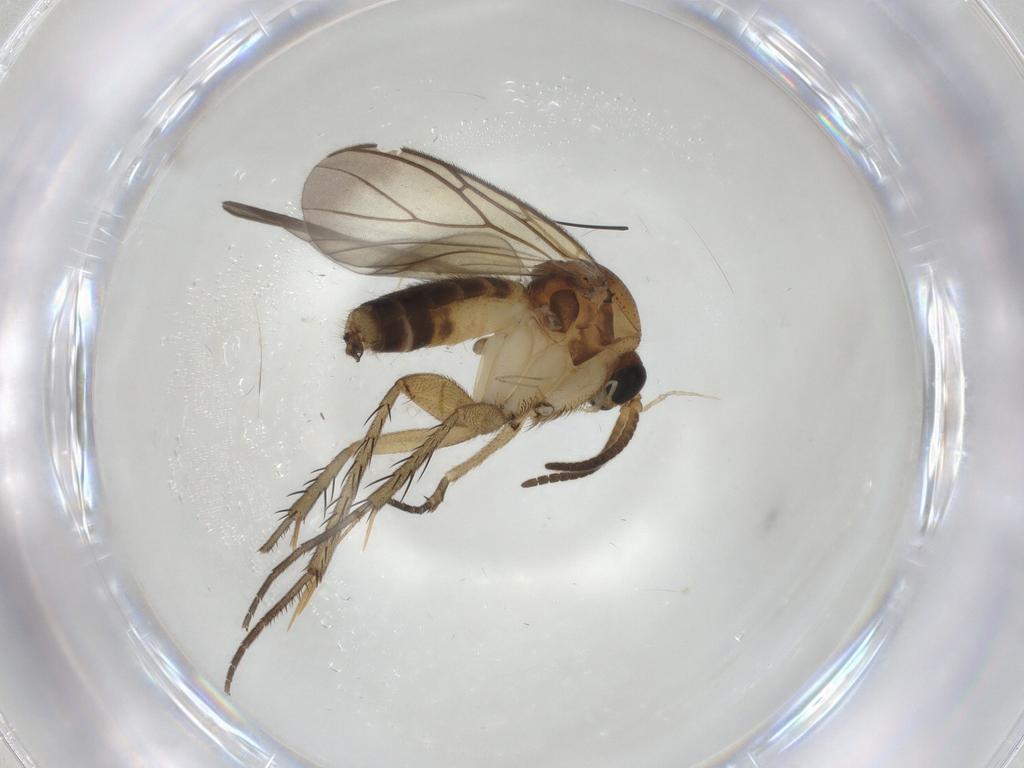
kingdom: Animalia
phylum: Arthropoda
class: Insecta
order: Diptera
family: Mycetophilidae
